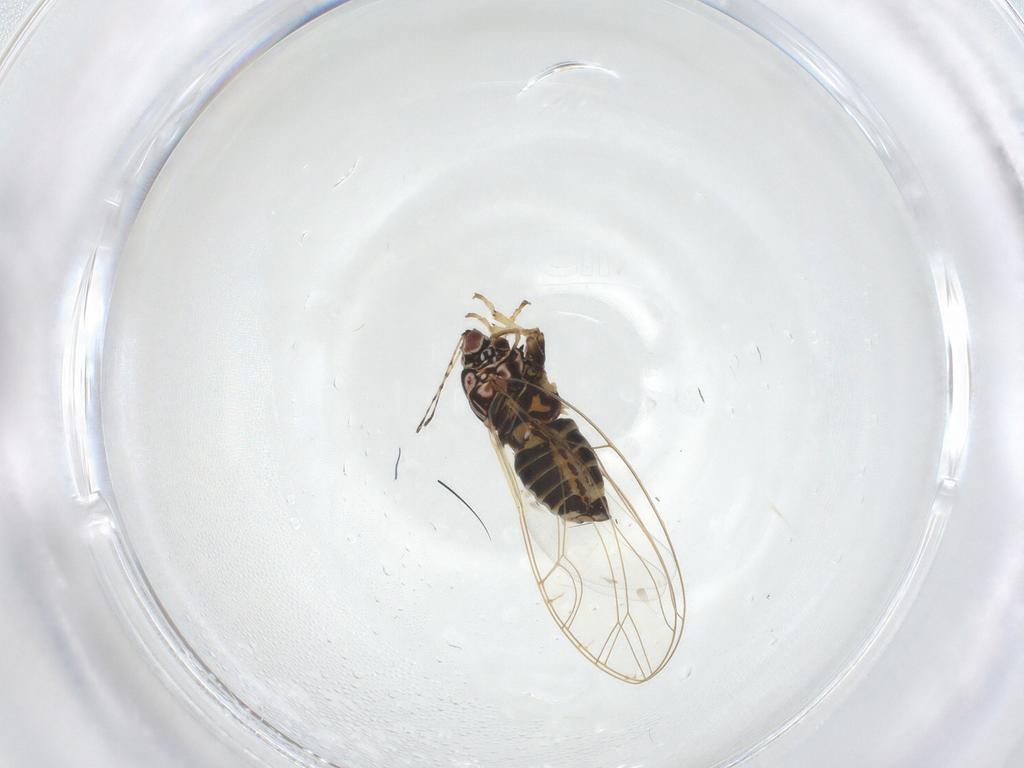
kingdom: Animalia
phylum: Arthropoda
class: Insecta
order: Hemiptera
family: Triozidae
